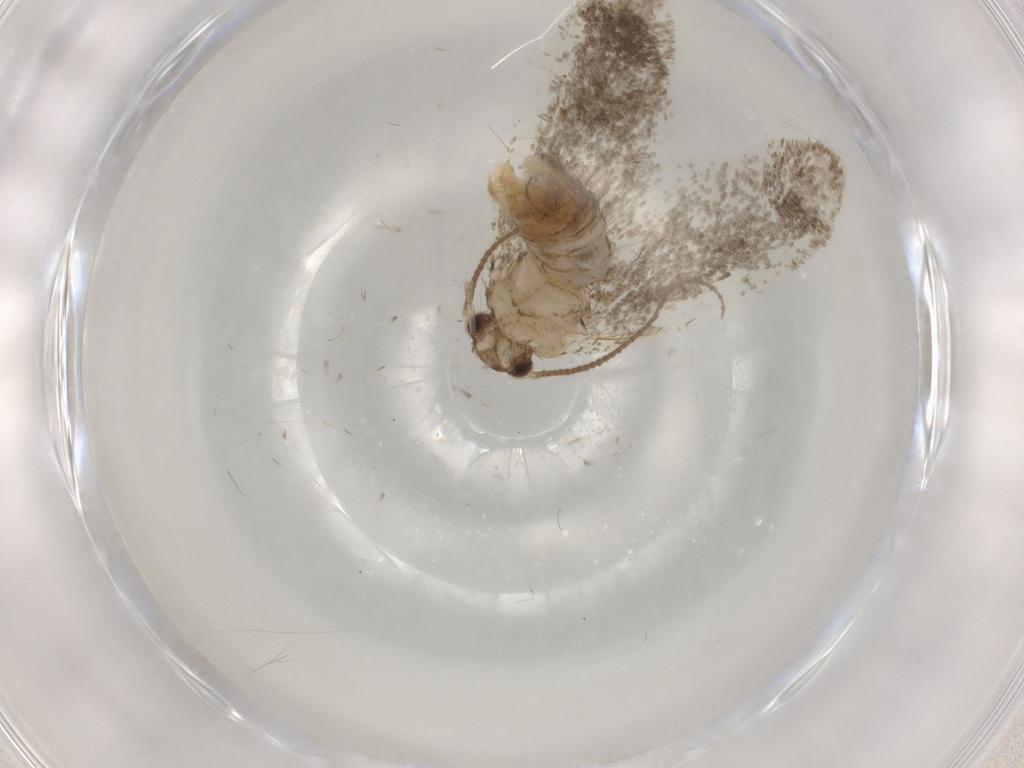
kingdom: Animalia
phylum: Arthropoda
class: Insecta
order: Lepidoptera
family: Dryadaulidae
